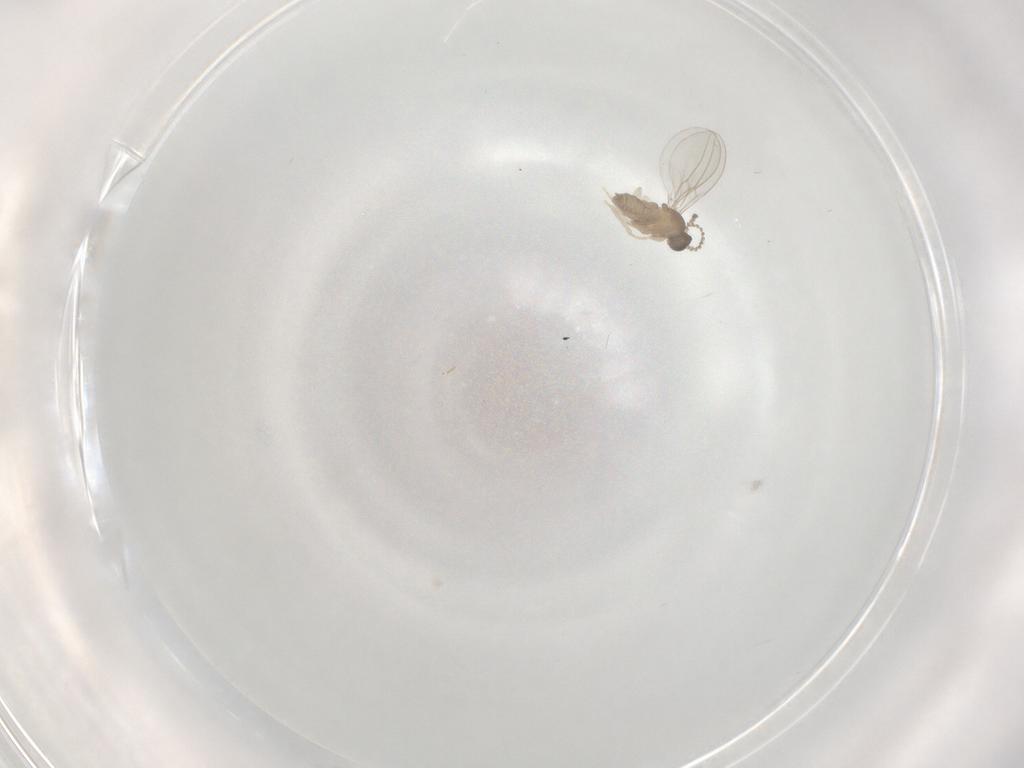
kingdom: Animalia
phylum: Arthropoda
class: Insecta
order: Diptera
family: Cecidomyiidae
